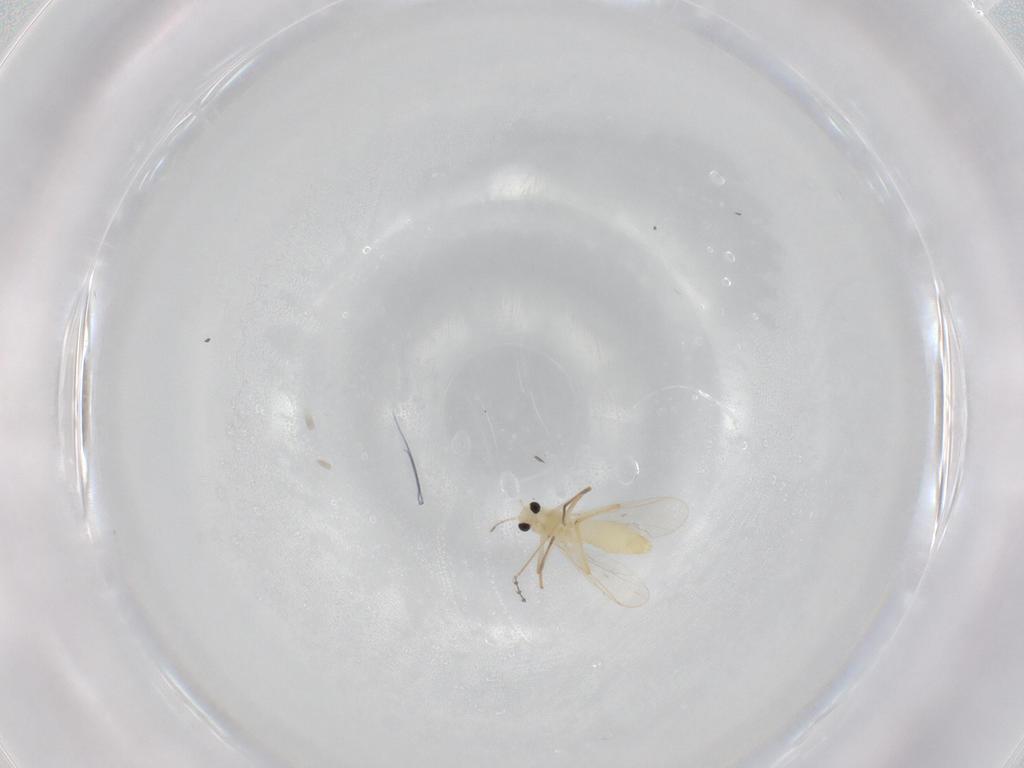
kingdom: Animalia
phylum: Arthropoda
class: Insecta
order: Diptera
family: Chironomidae
